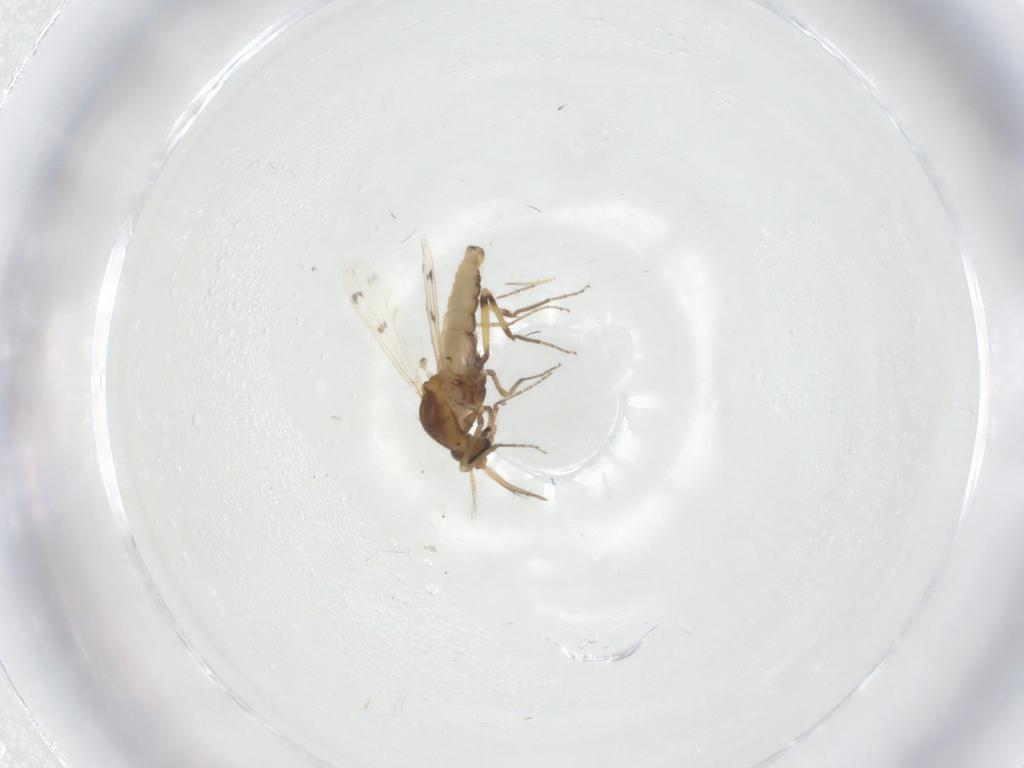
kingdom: Animalia
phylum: Arthropoda
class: Insecta
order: Diptera
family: Ceratopogonidae
